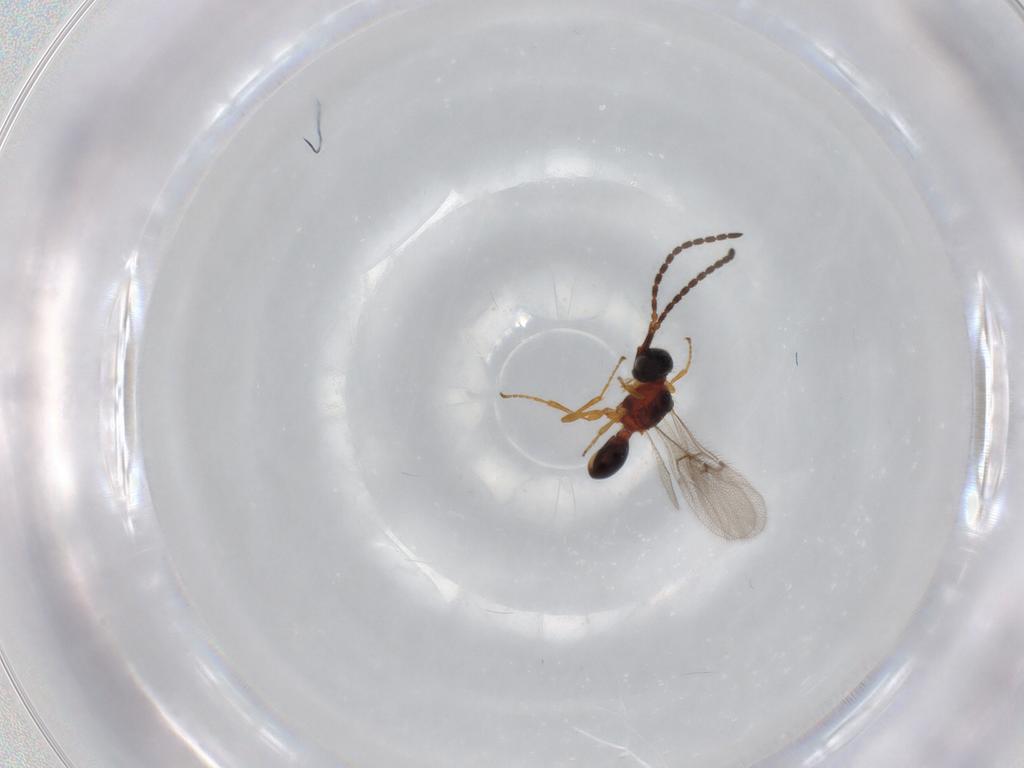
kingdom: Animalia
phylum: Arthropoda
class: Insecta
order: Hymenoptera
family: Diapriidae
